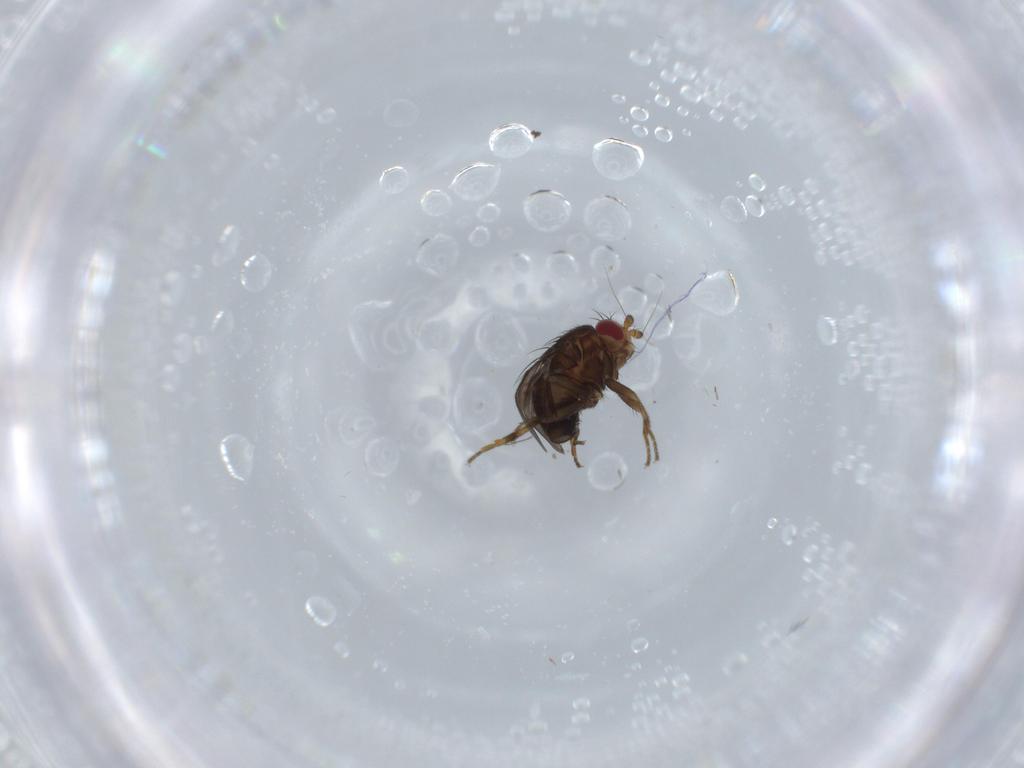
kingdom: Animalia
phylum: Arthropoda
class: Insecta
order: Diptera
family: Sphaeroceridae
